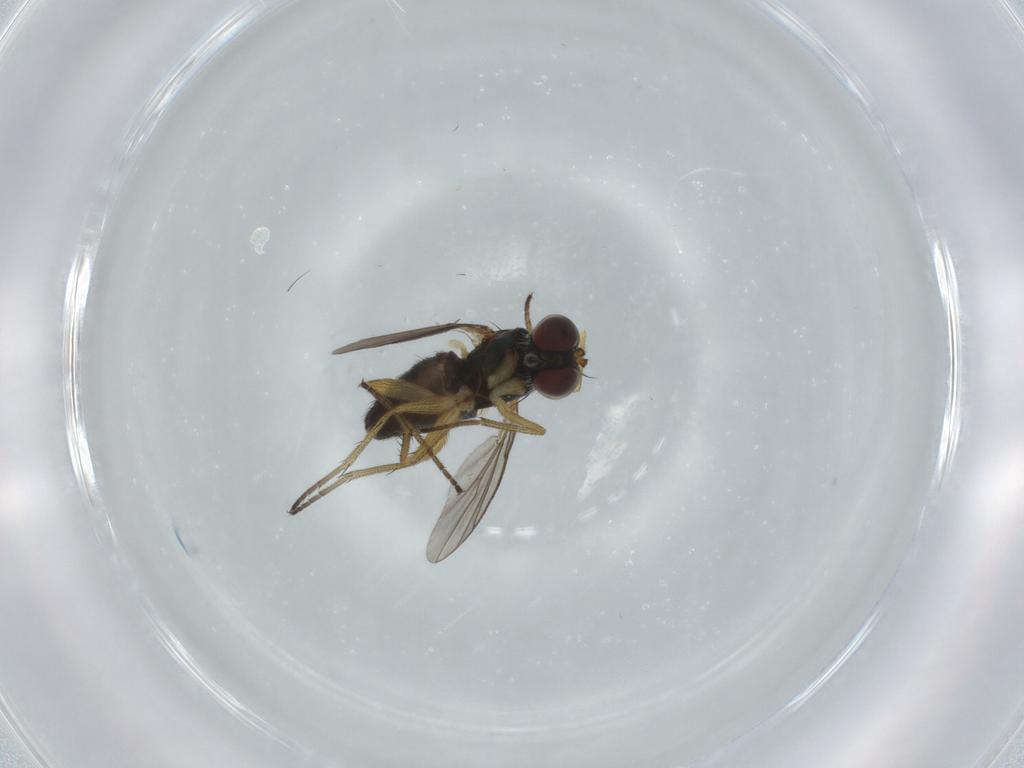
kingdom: Animalia
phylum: Arthropoda
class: Insecta
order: Diptera
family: Dolichopodidae
